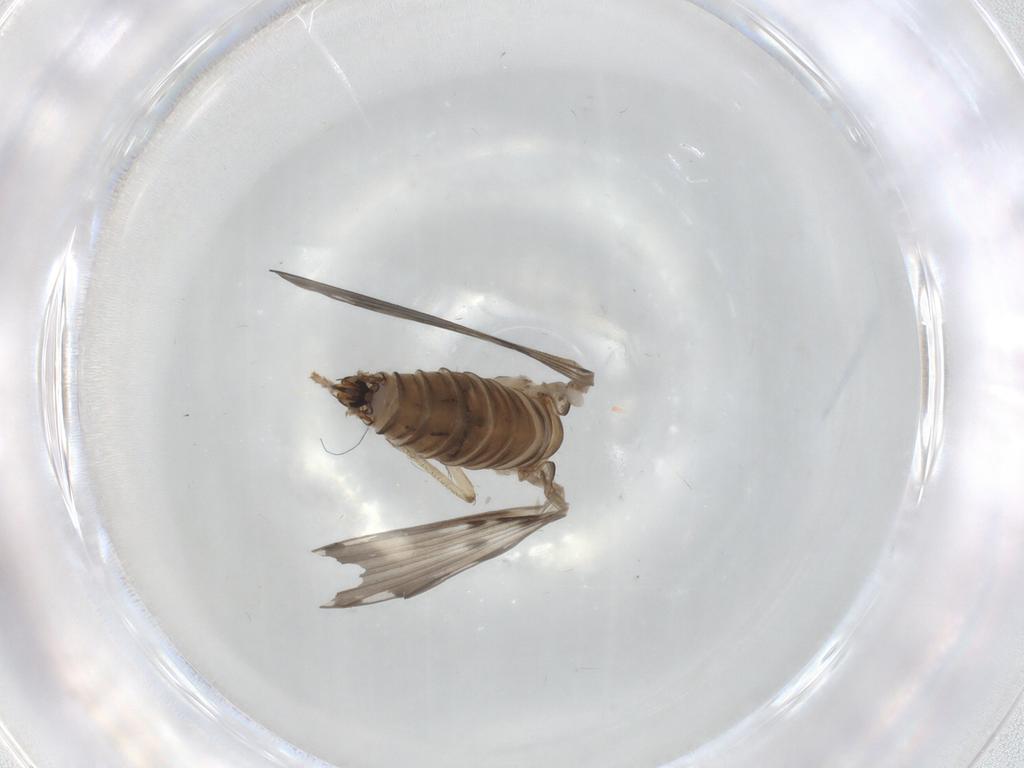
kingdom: Animalia
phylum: Arthropoda
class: Insecta
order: Diptera
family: Psychodidae
